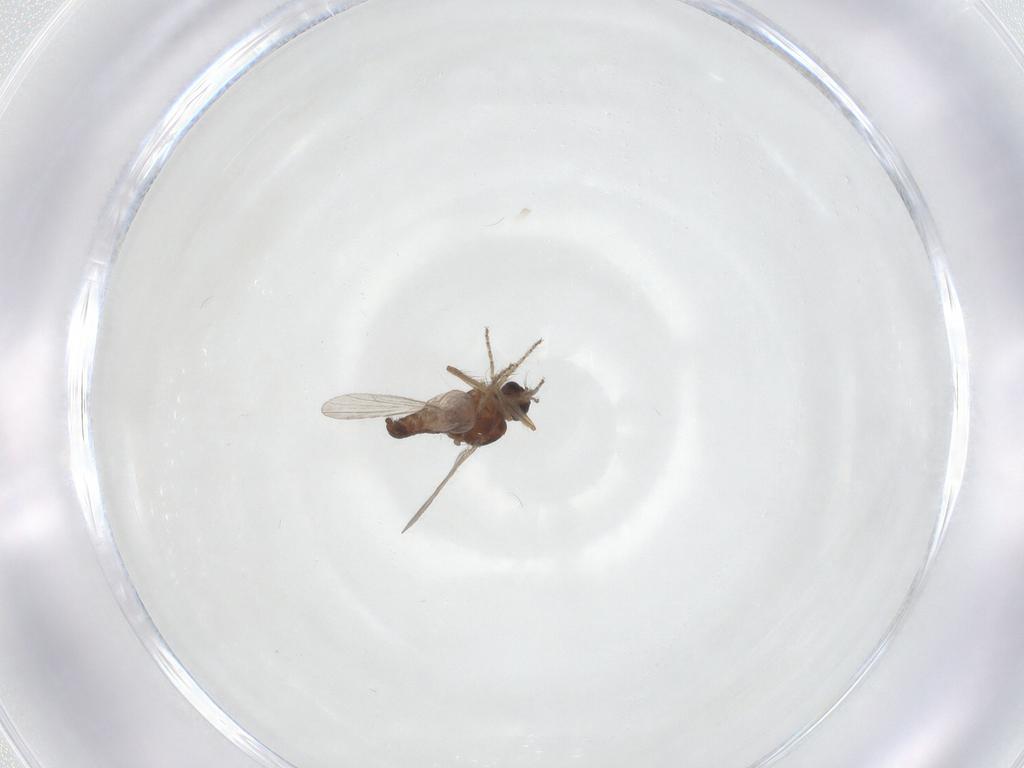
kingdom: Animalia
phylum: Arthropoda
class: Insecta
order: Diptera
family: Ceratopogonidae
